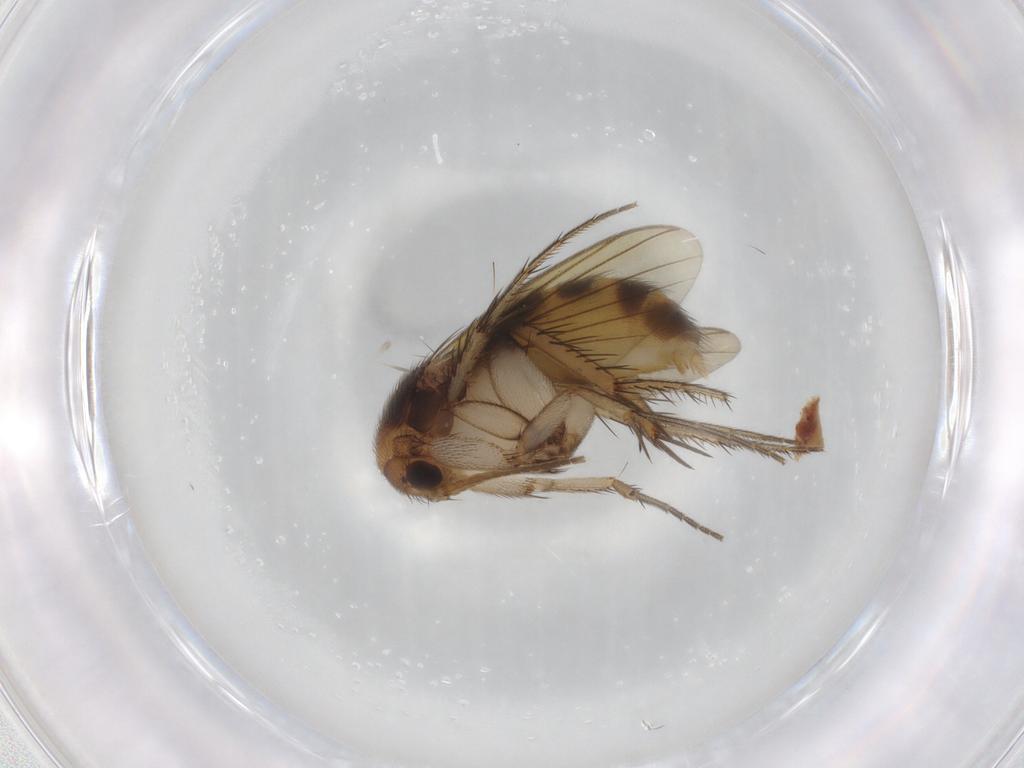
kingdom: Animalia
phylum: Arthropoda
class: Insecta
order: Diptera
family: Mycetophilidae
